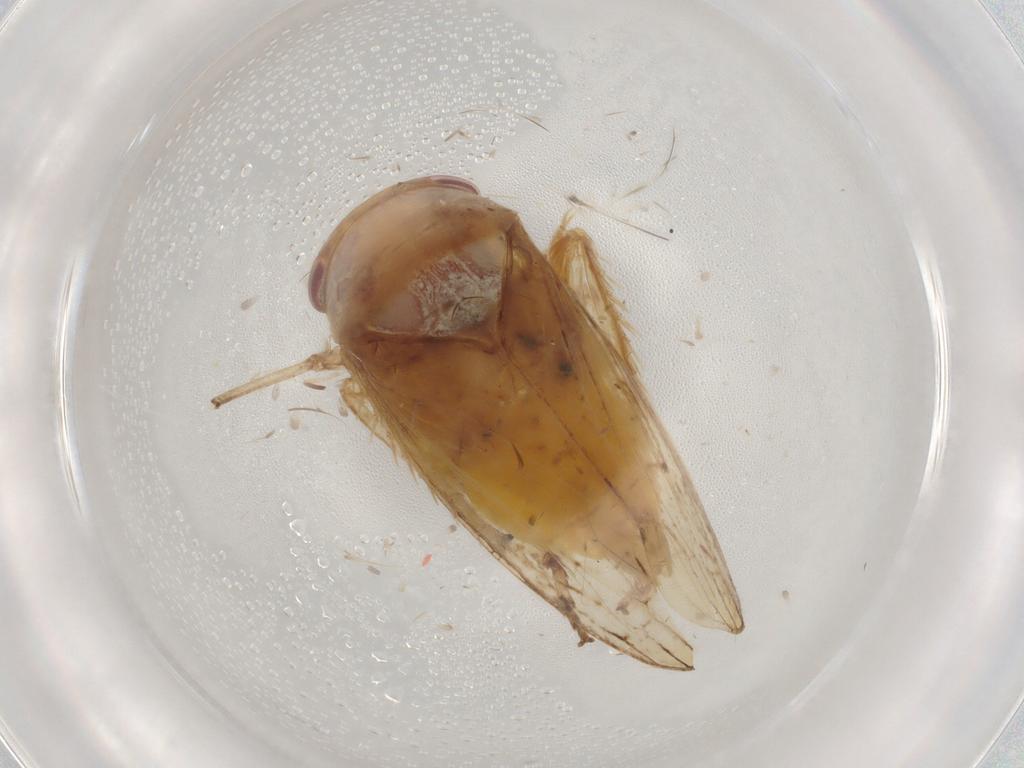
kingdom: Animalia
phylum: Arthropoda
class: Insecta
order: Hemiptera
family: Cicadellidae
